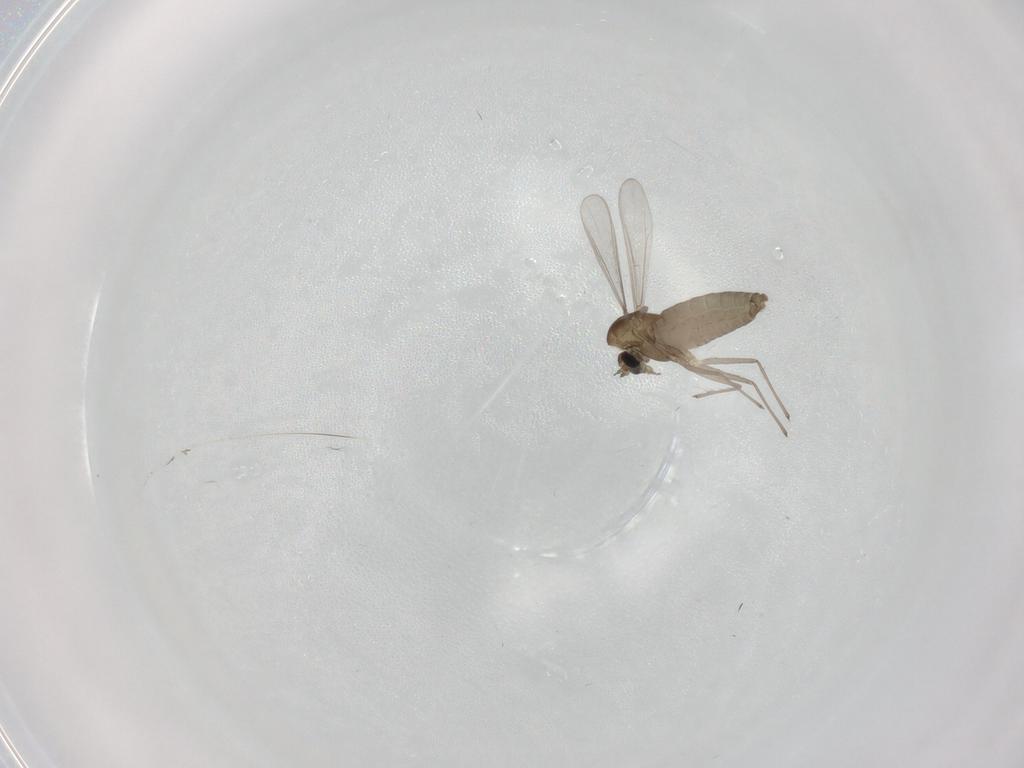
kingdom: Animalia
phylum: Arthropoda
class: Insecta
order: Diptera
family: Chironomidae
